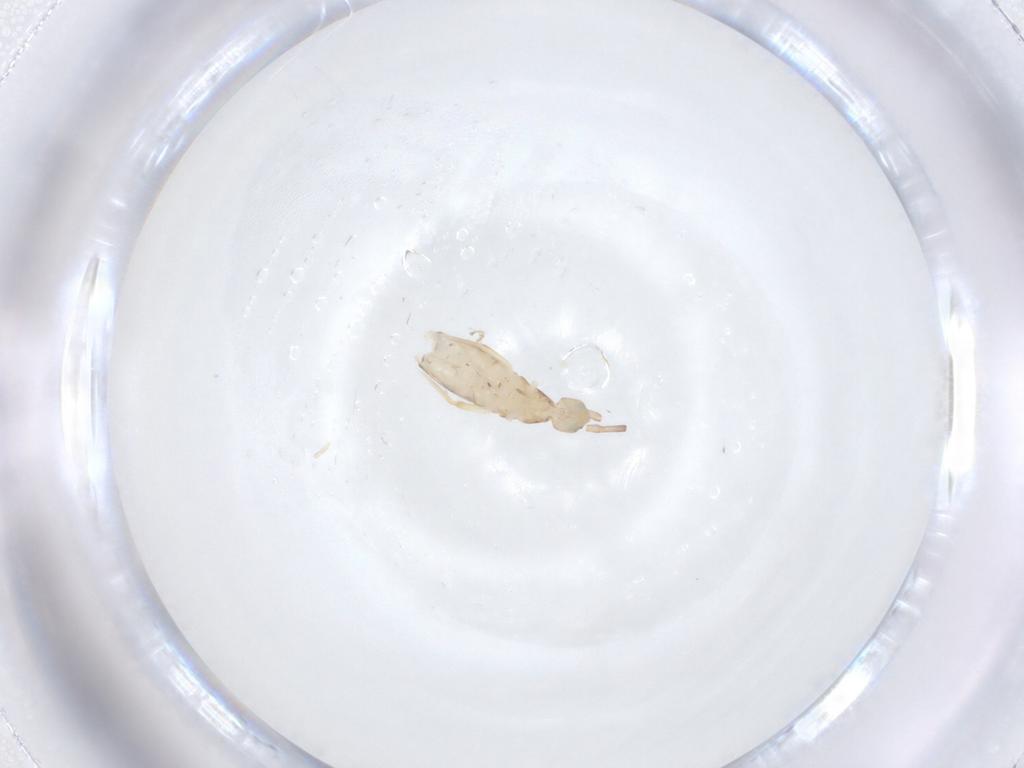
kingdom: Animalia
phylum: Arthropoda
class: Collembola
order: Entomobryomorpha
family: Entomobryidae
